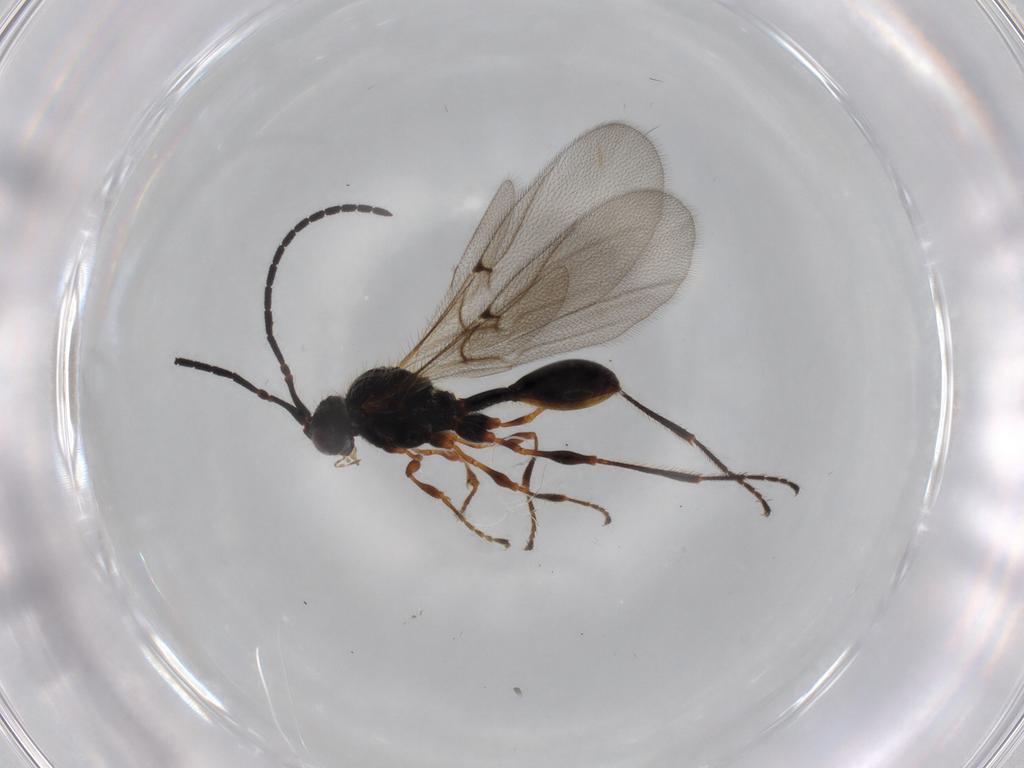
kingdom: Animalia
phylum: Arthropoda
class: Insecta
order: Hymenoptera
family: Diapriidae
